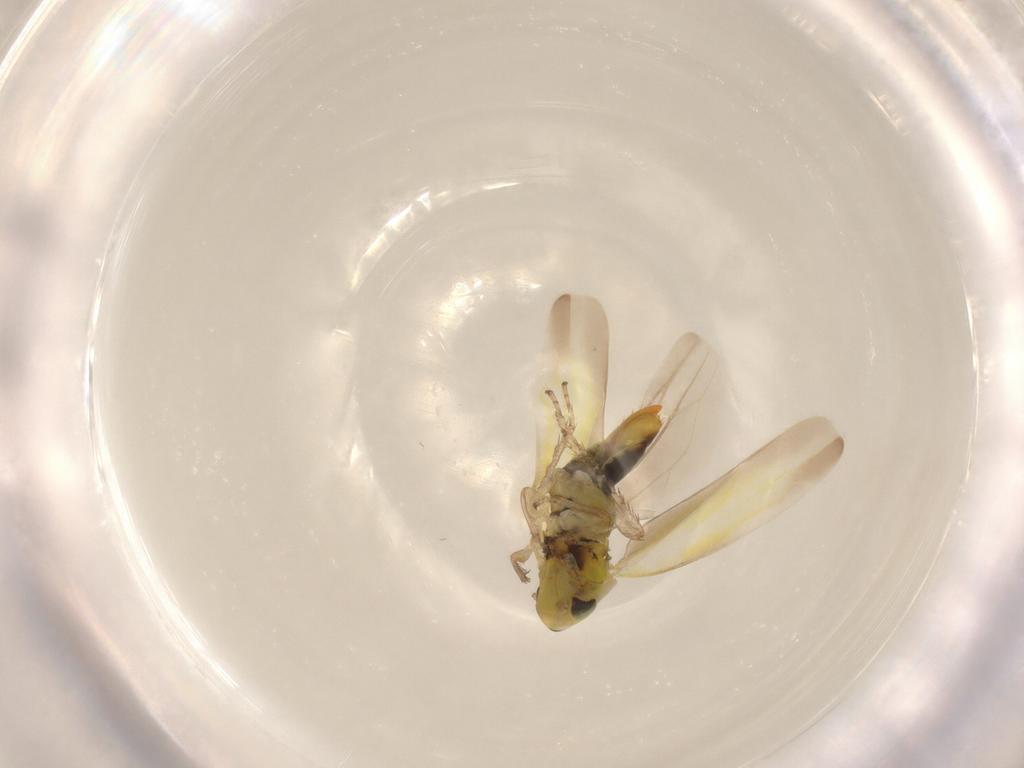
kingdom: Animalia
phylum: Arthropoda
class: Insecta
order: Hemiptera
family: Cicadellidae
